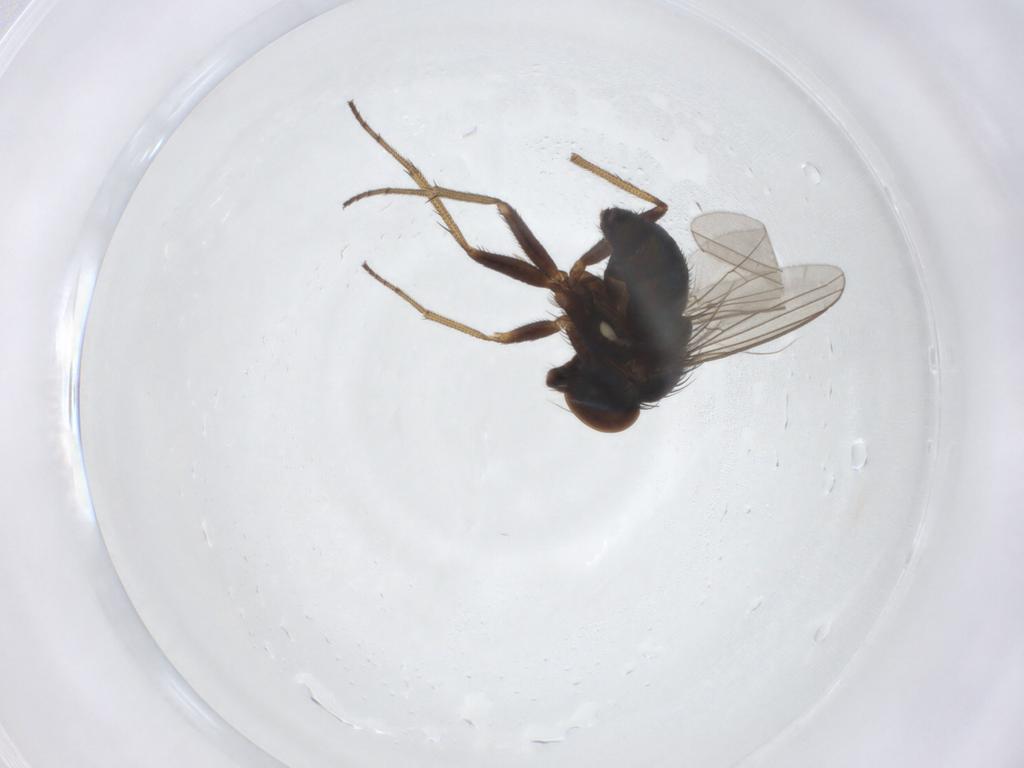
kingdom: Animalia
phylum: Arthropoda
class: Insecta
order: Diptera
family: Dolichopodidae
